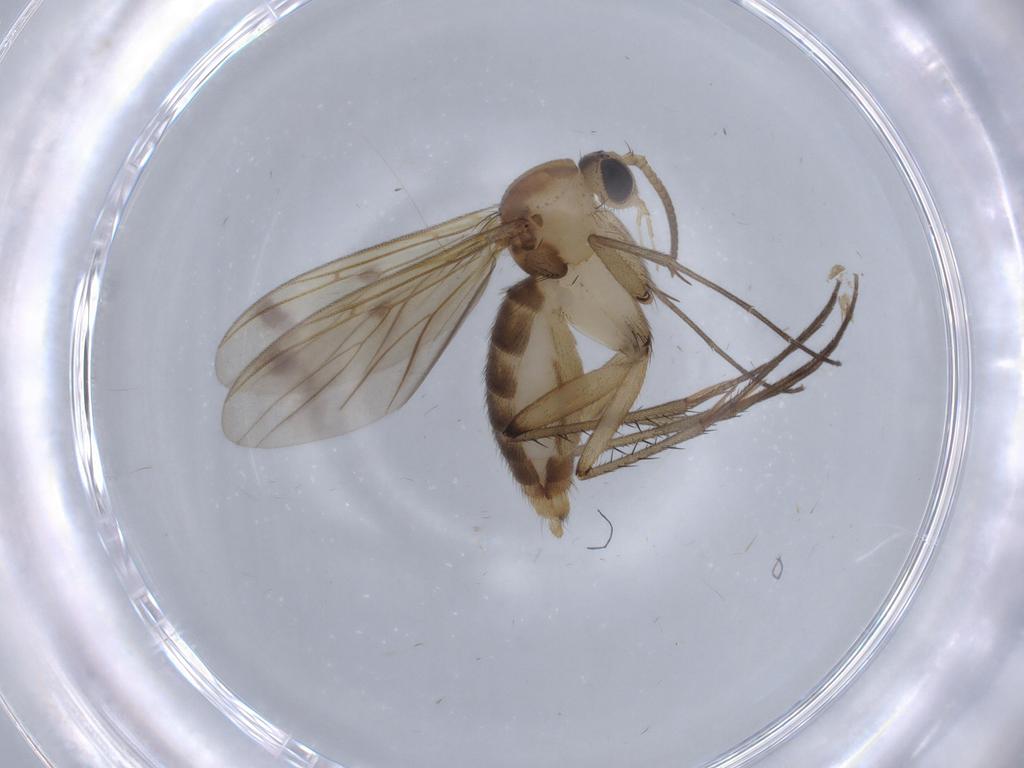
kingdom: Animalia
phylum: Arthropoda
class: Insecta
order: Diptera
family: Mycetophilidae
